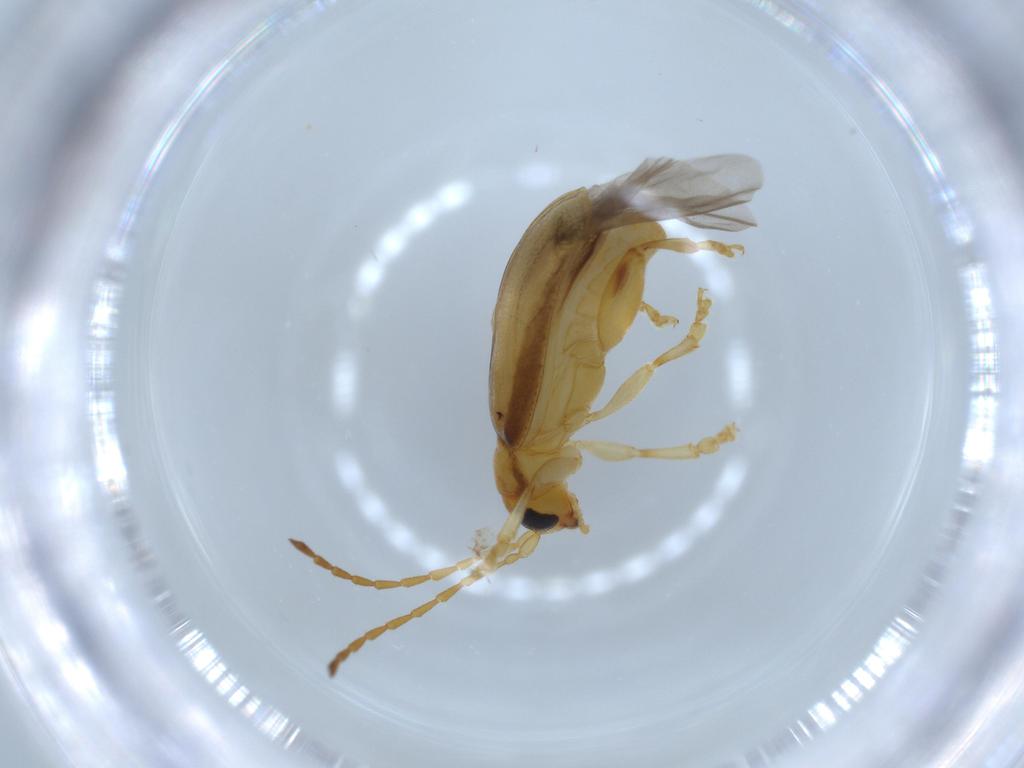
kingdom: Animalia
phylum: Arthropoda
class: Insecta
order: Coleoptera
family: Chrysomelidae
